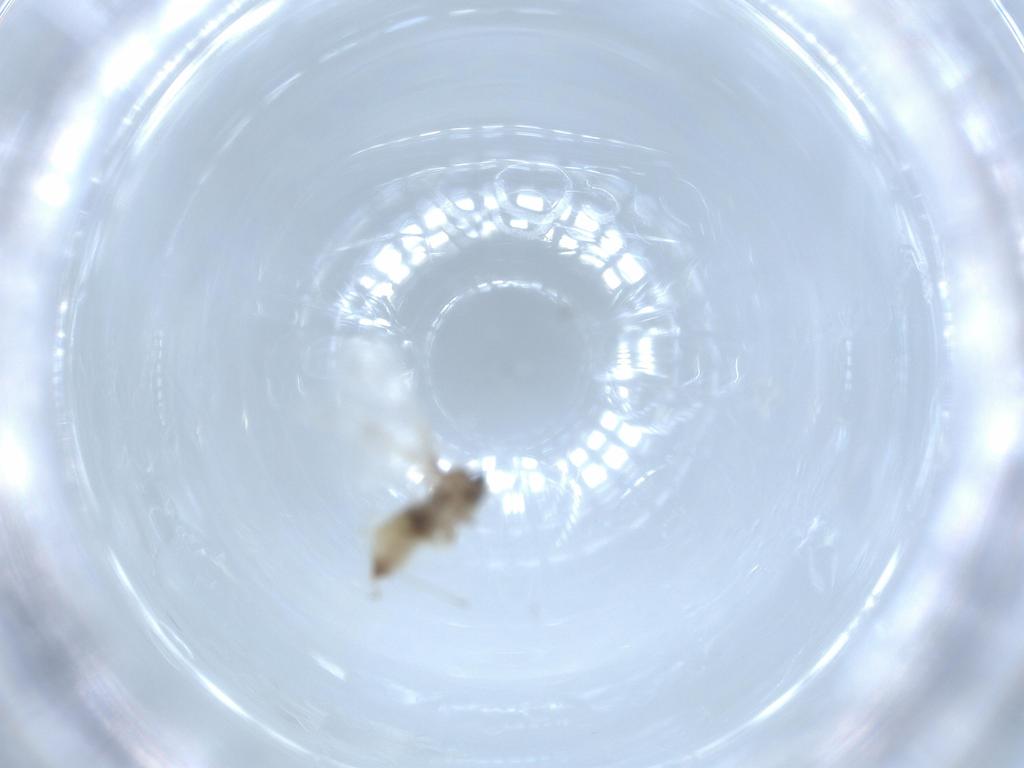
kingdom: Animalia
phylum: Arthropoda
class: Insecta
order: Diptera
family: Cecidomyiidae
